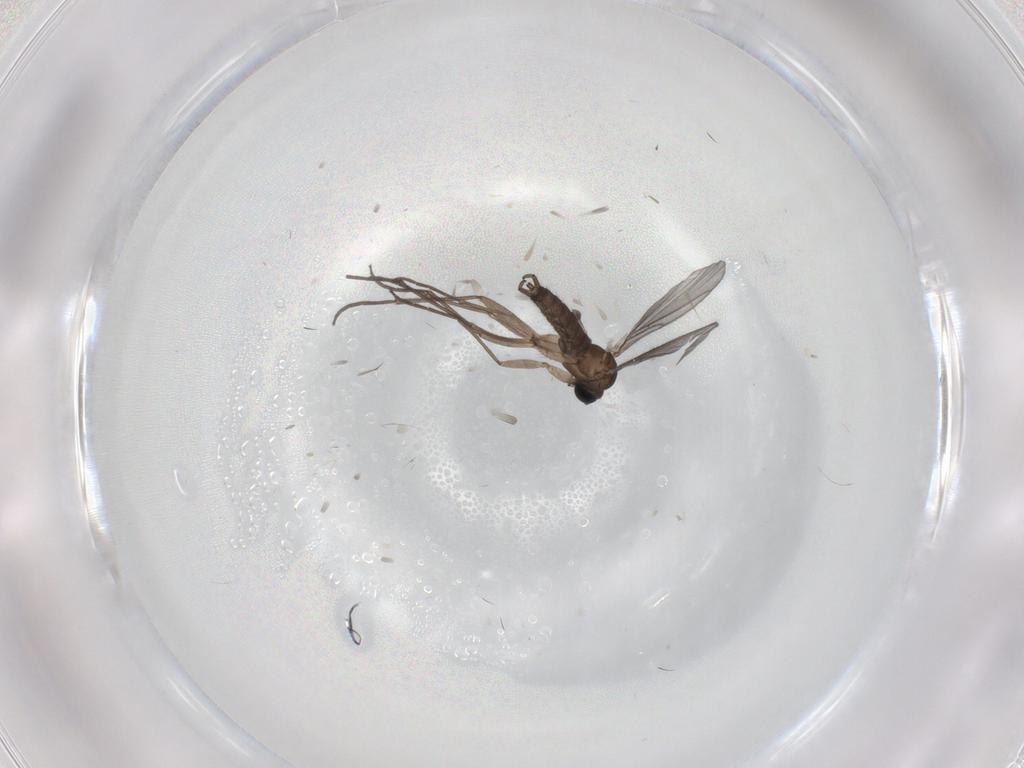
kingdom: Animalia
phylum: Arthropoda
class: Insecta
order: Diptera
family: Sciaridae
